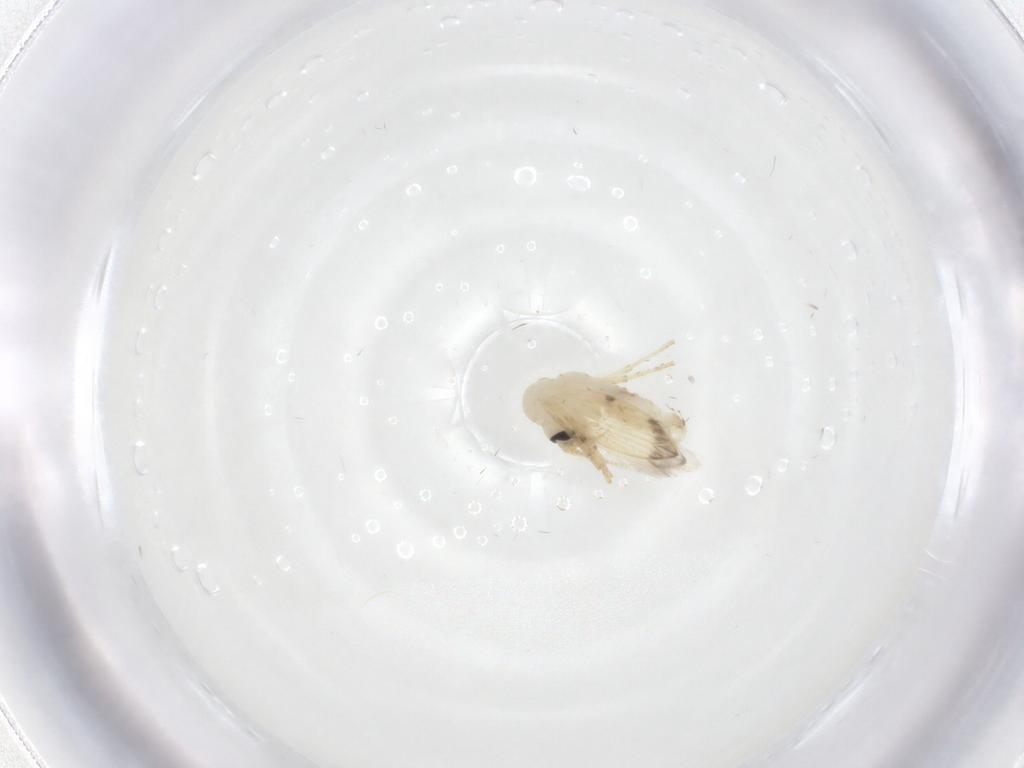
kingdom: Animalia
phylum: Arthropoda
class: Insecta
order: Diptera
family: Psychodidae
